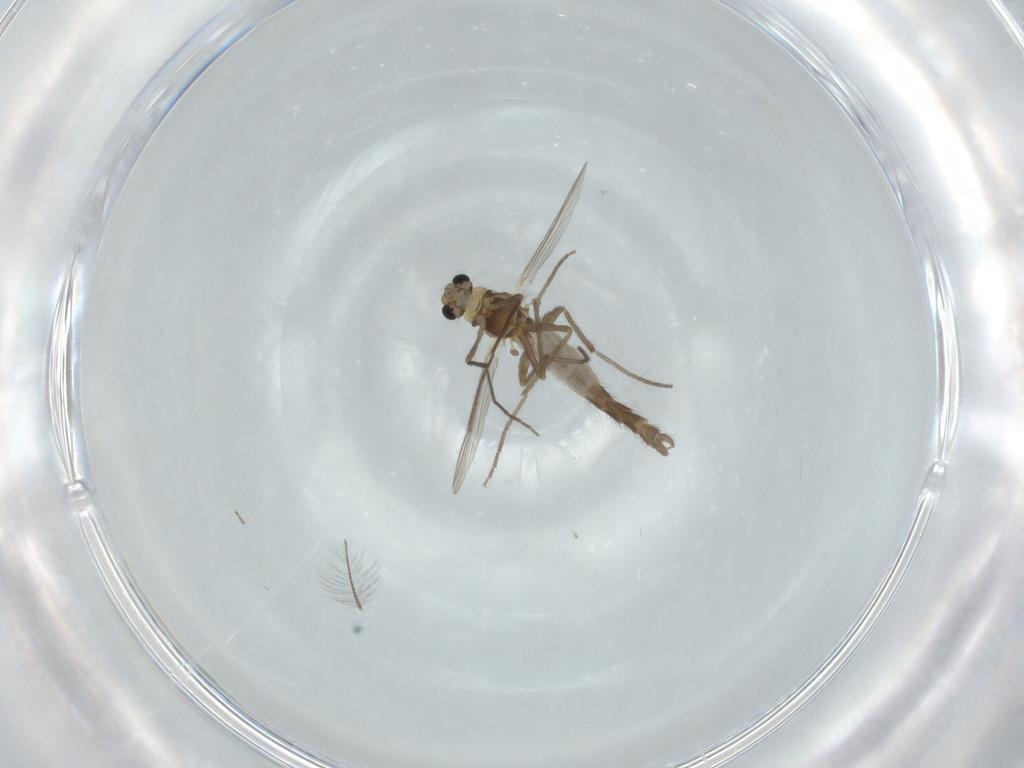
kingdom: Animalia
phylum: Arthropoda
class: Insecta
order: Diptera
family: Chironomidae
